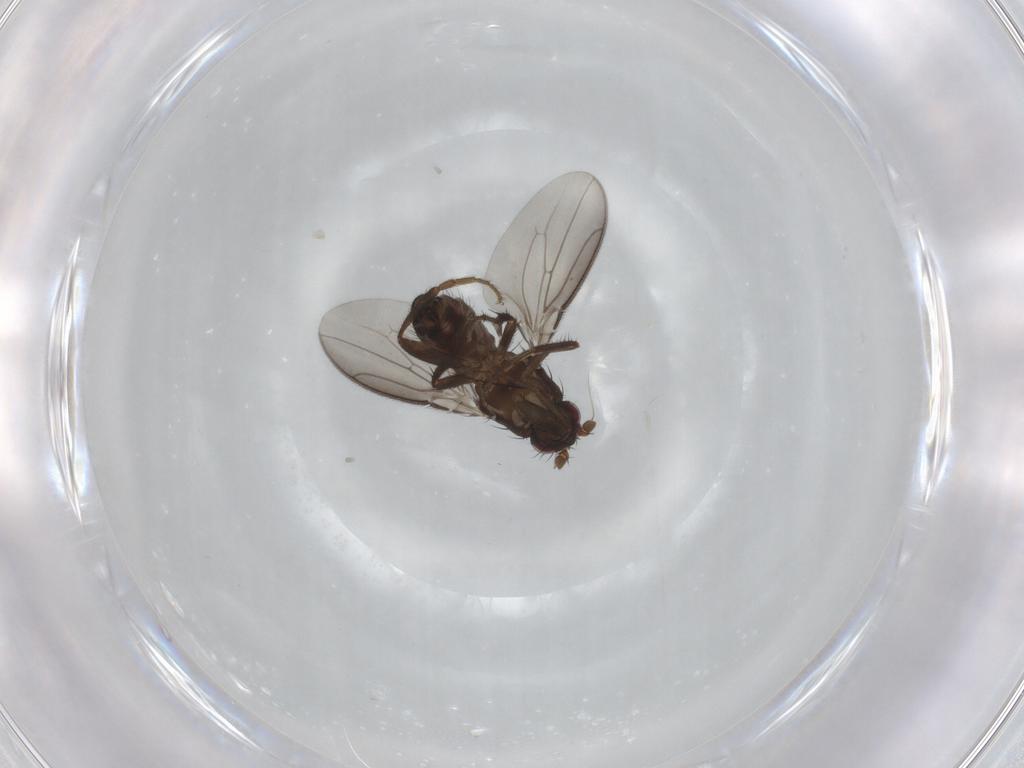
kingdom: Animalia
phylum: Arthropoda
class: Insecta
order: Diptera
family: Sphaeroceridae
